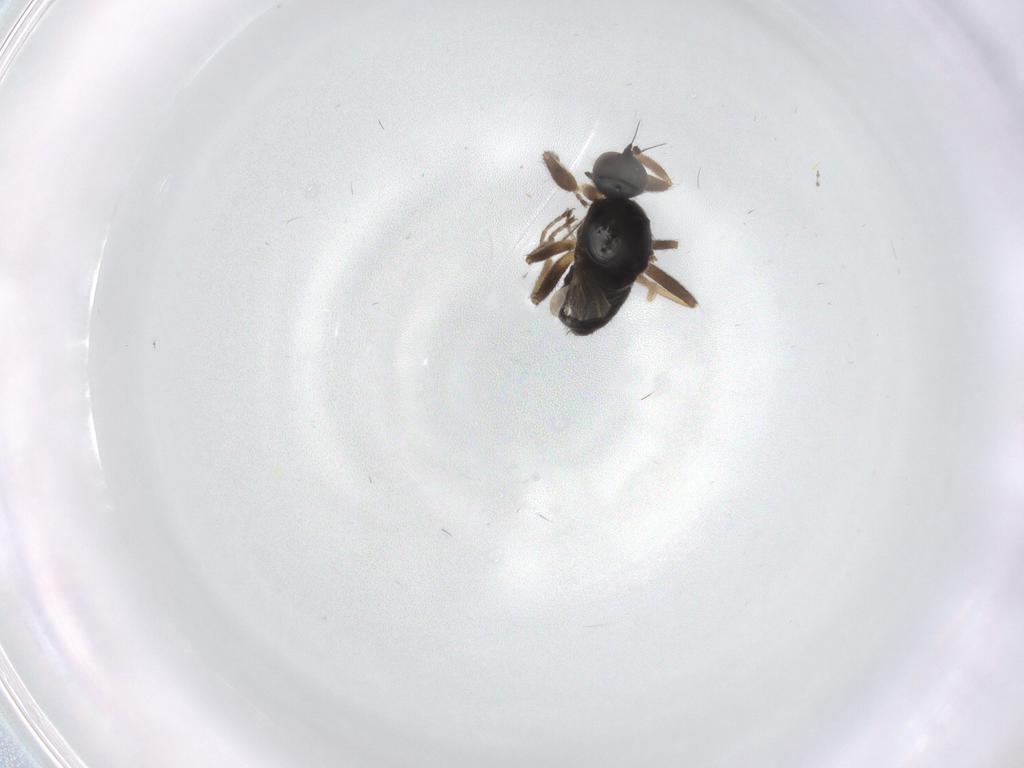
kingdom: Animalia
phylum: Arthropoda
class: Insecta
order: Diptera
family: Hybotidae
